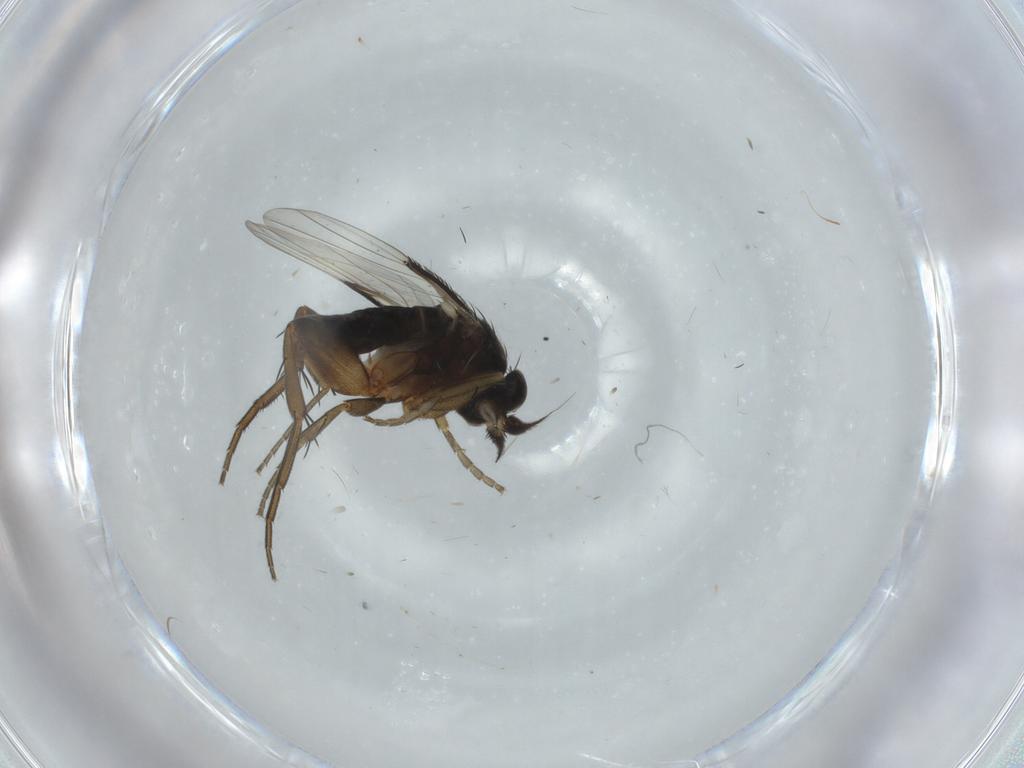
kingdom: Animalia
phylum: Arthropoda
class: Insecta
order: Diptera
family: Phoridae
